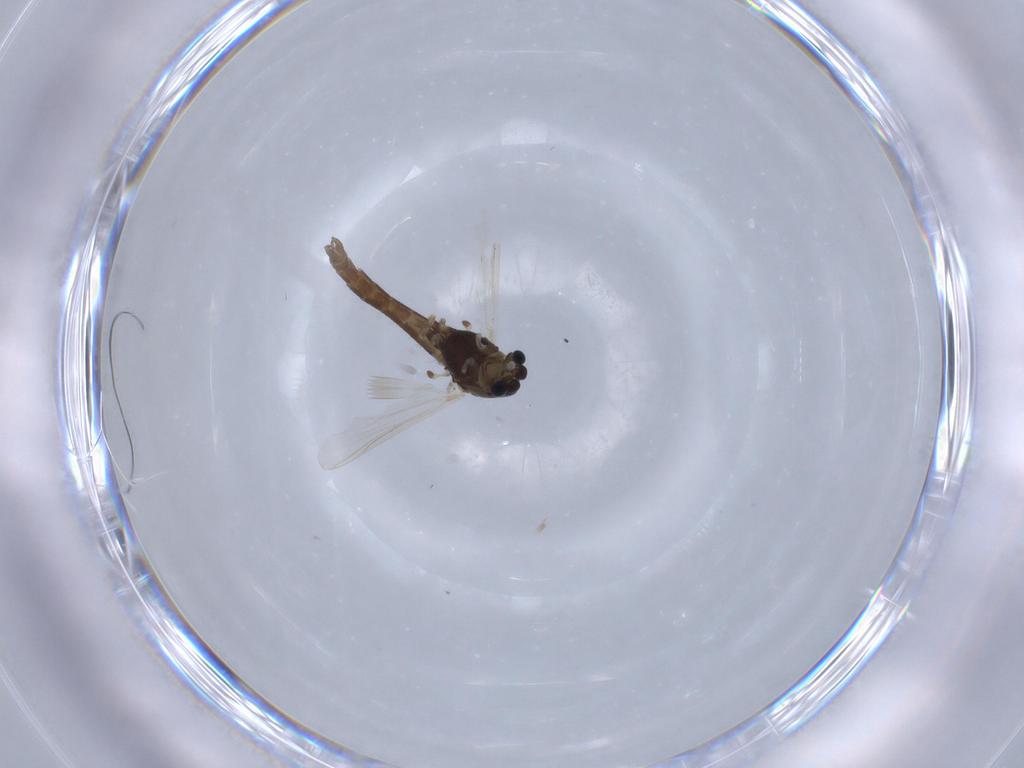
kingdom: Animalia
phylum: Arthropoda
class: Insecta
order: Diptera
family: Chironomidae
